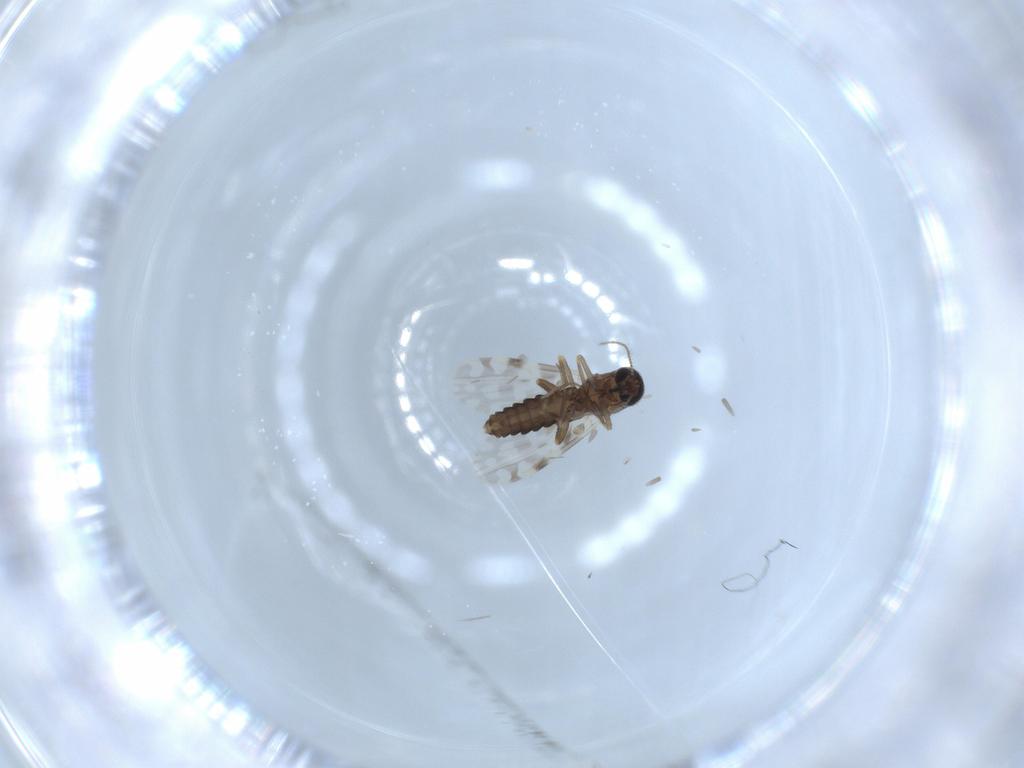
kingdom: Animalia
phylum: Arthropoda
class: Insecta
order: Diptera
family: Ceratopogonidae
